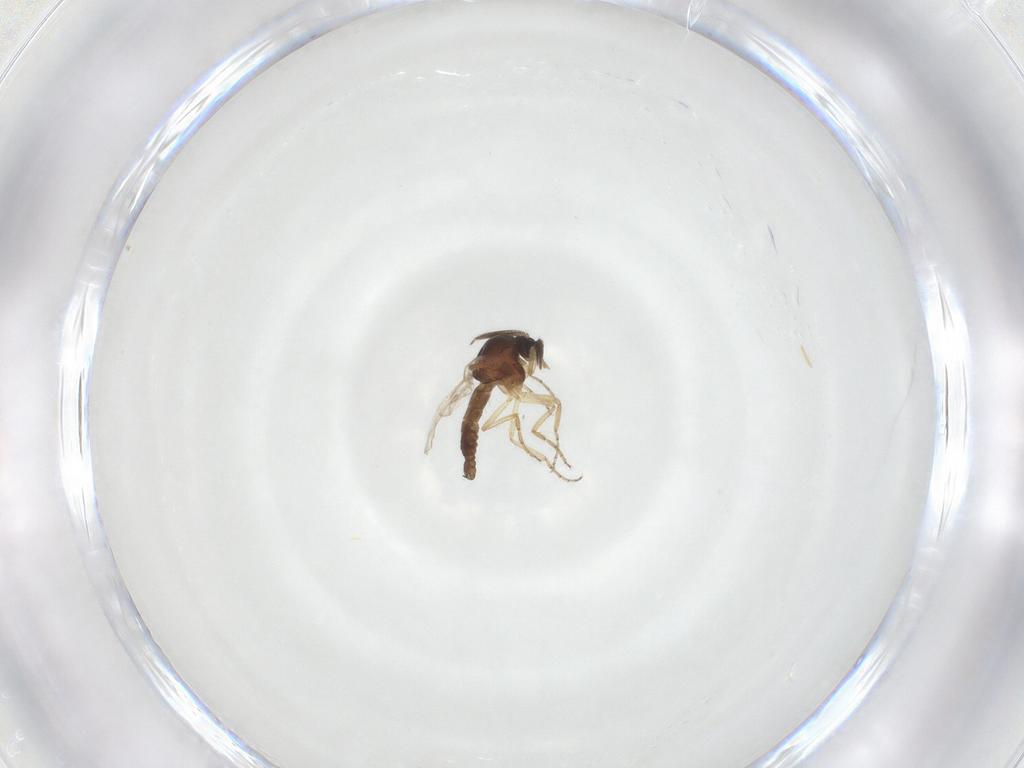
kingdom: Animalia
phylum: Arthropoda
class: Insecta
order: Diptera
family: Ceratopogonidae
